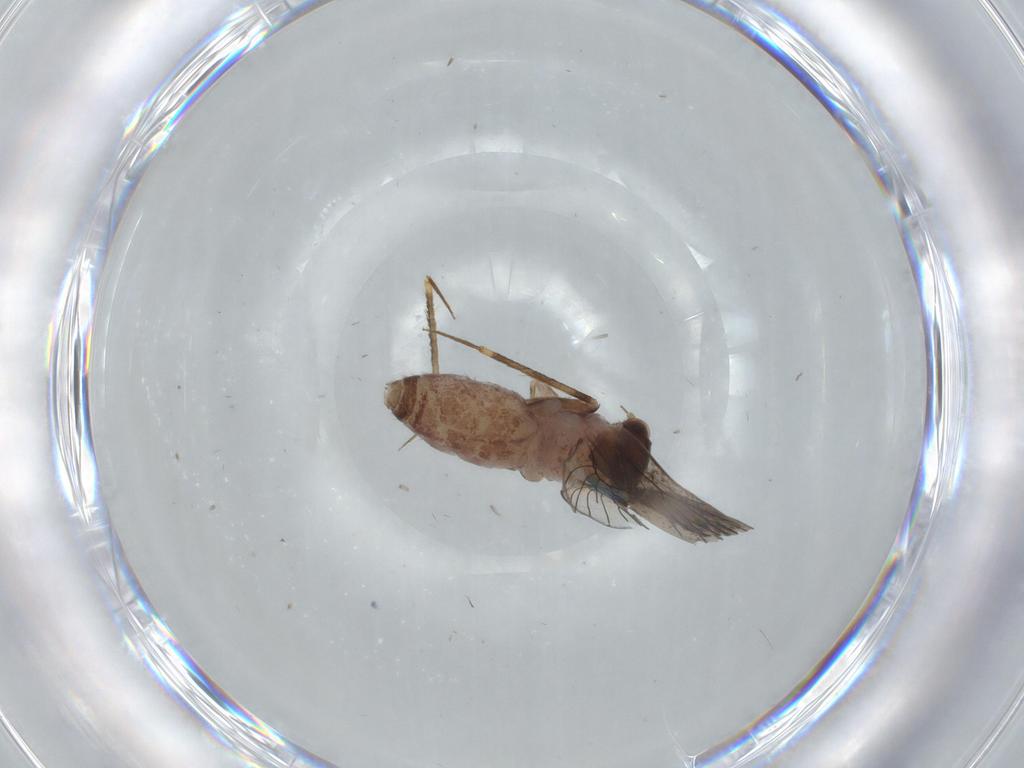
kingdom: Animalia
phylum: Arthropoda
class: Insecta
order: Psocodea
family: Lepidopsocidae
